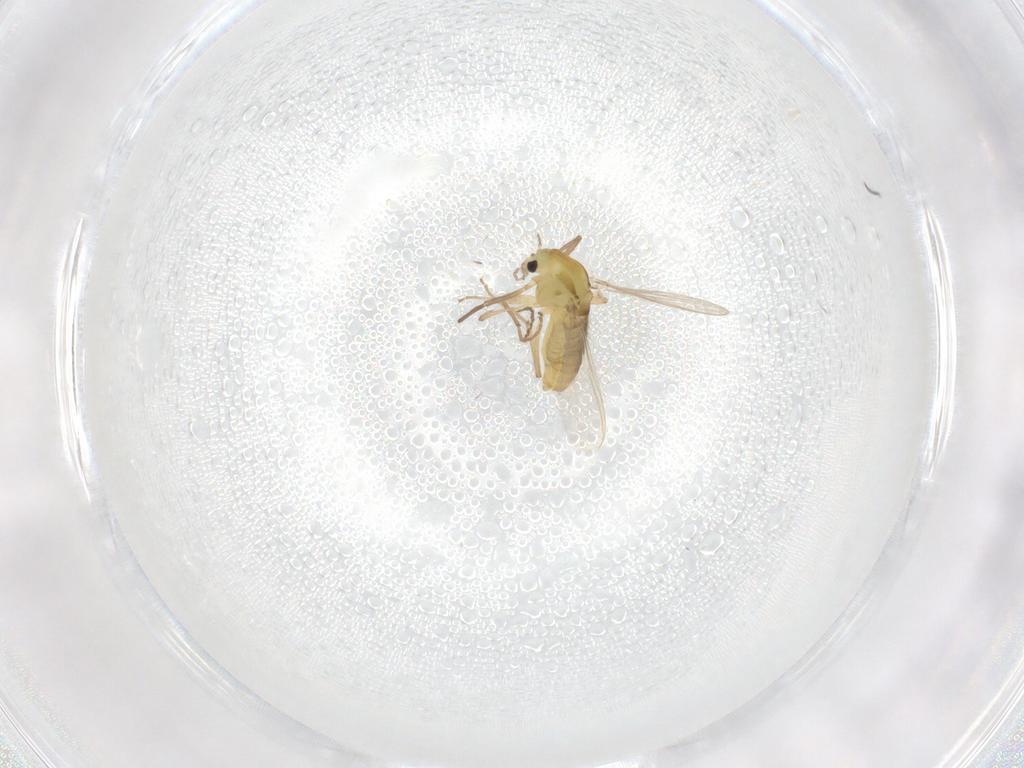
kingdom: Animalia
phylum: Arthropoda
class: Insecta
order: Diptera
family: Chironomidae
